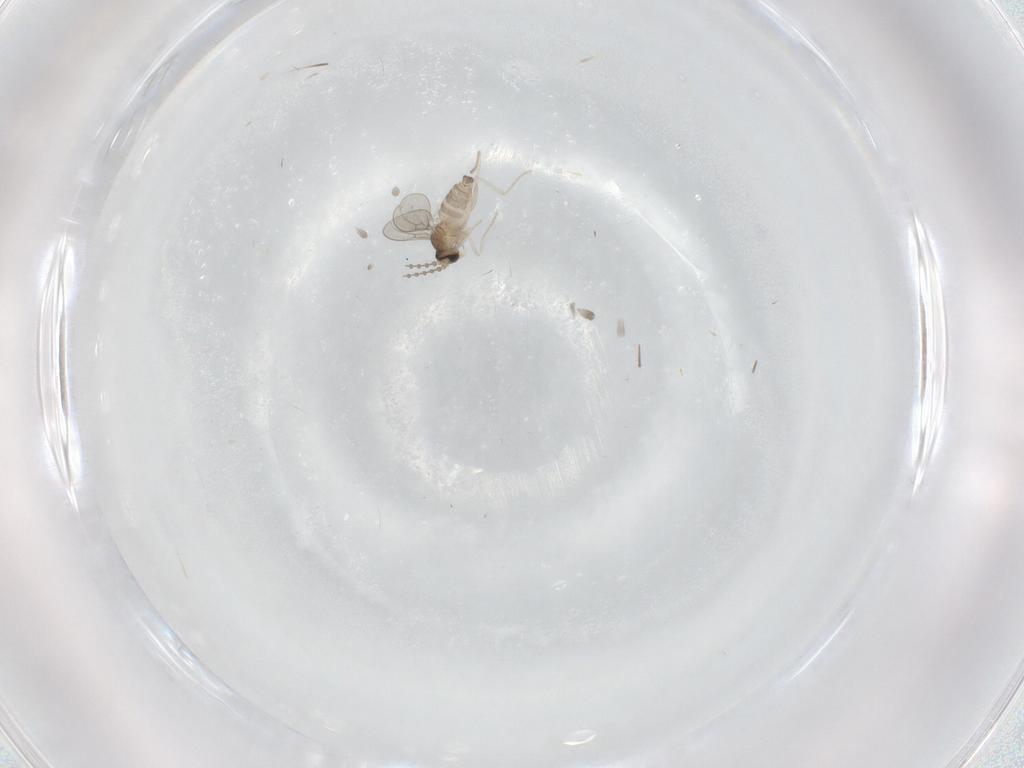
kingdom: Animalia
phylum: Arthropoda
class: Insecta
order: Diptera
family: Cecidomyiidae
